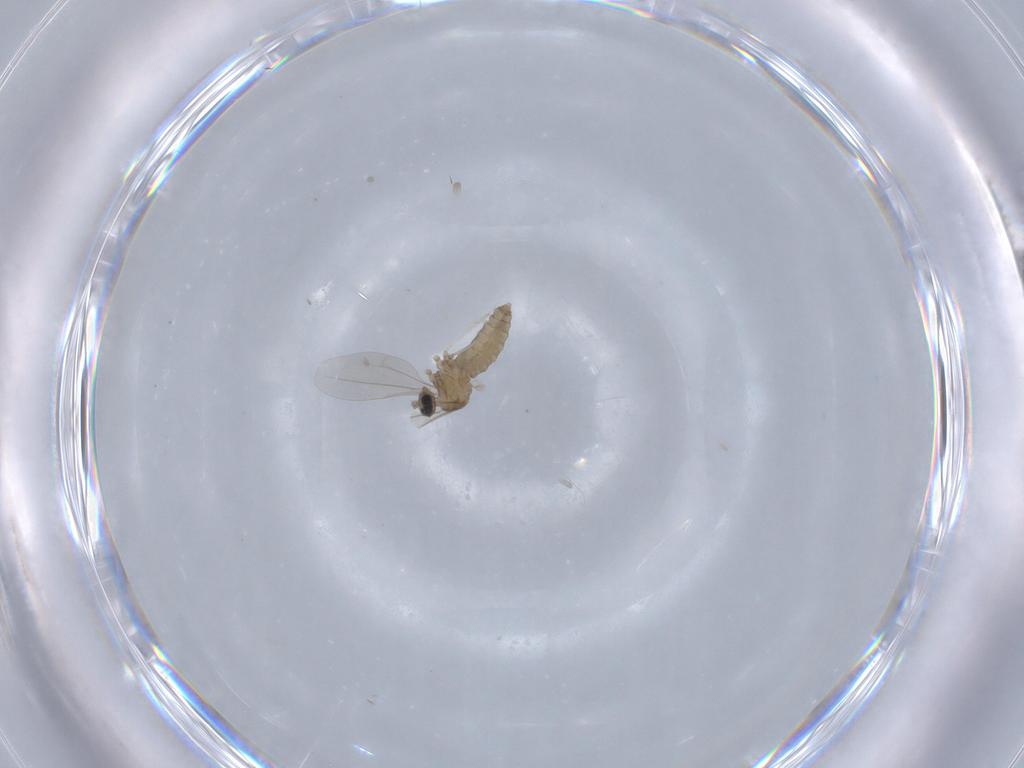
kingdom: Animalia
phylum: Arthropoda
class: Insecta
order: Diptera
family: Cecidomyiidae
